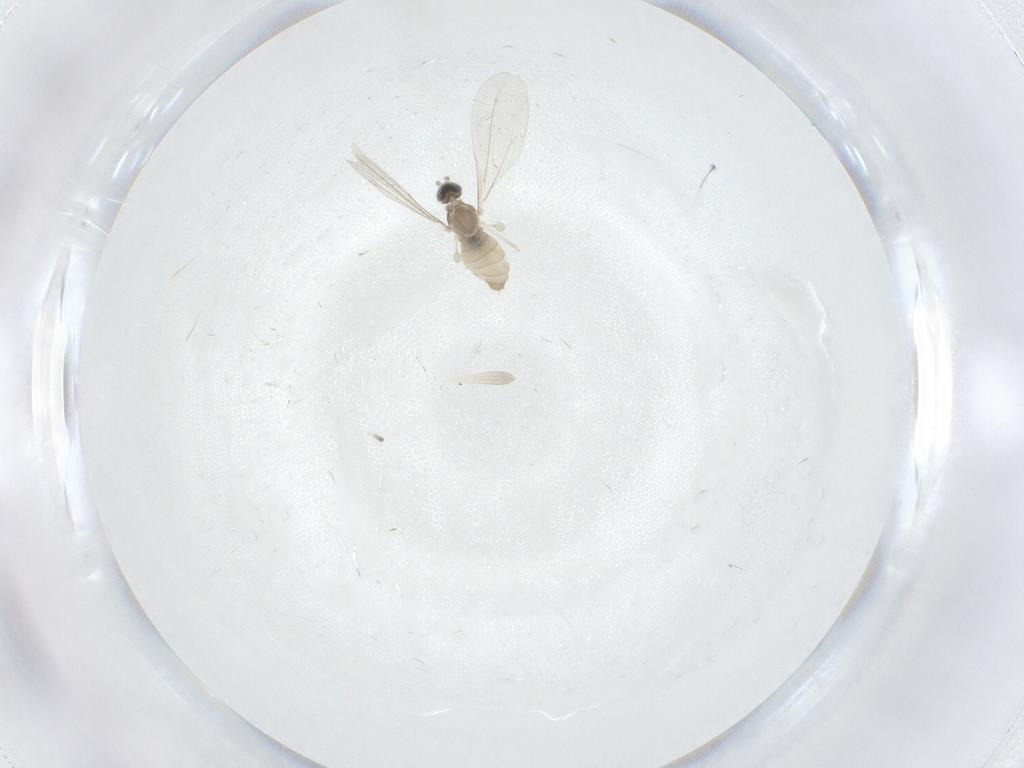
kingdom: Animalia
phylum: Arthropoda
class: Insecta
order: Diptera
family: Cecidomyiidae
